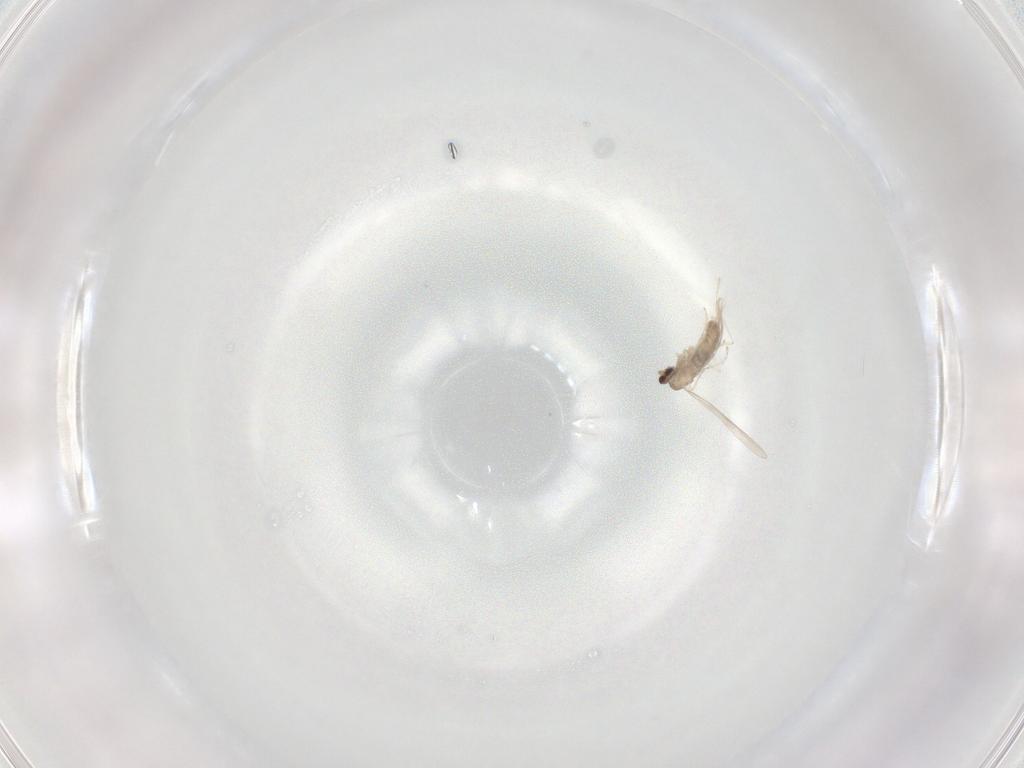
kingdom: Animalia
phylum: Arthropoda
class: Insecta
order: Diptera
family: Cecidomyiidae
